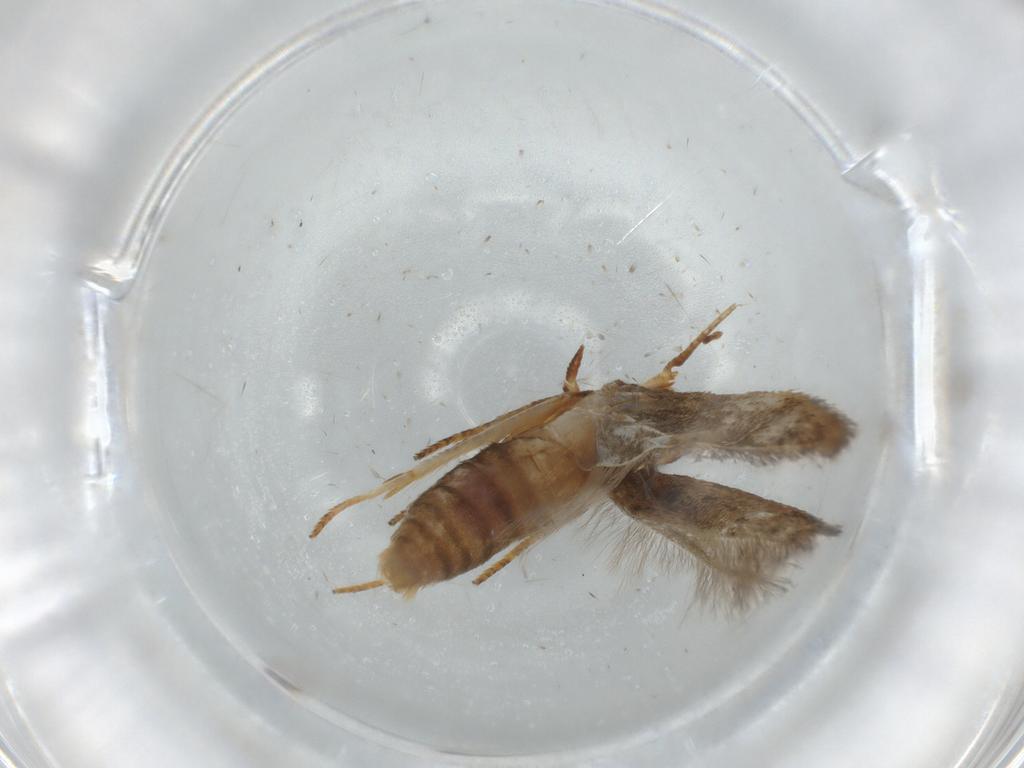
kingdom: Animalia
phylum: Arthropoda
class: Insecta
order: Lepidoptera
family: Blastobasidae
